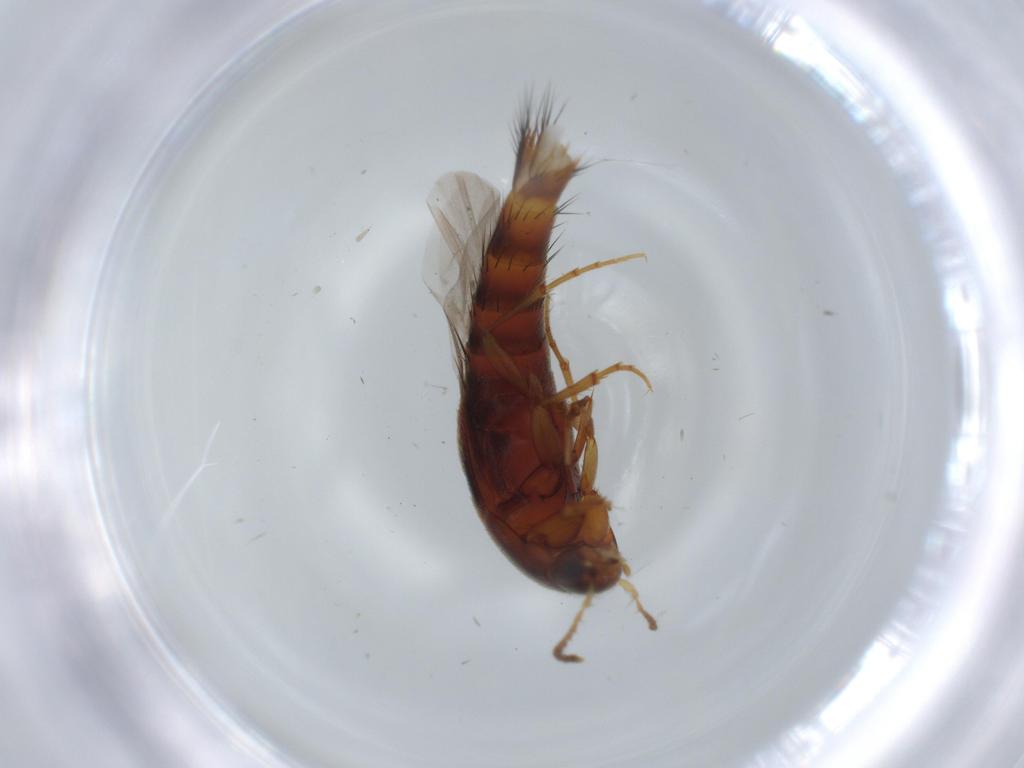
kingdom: Animalia
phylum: Arthropoda
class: Insecta
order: Coleoptera
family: Staphylinidae
